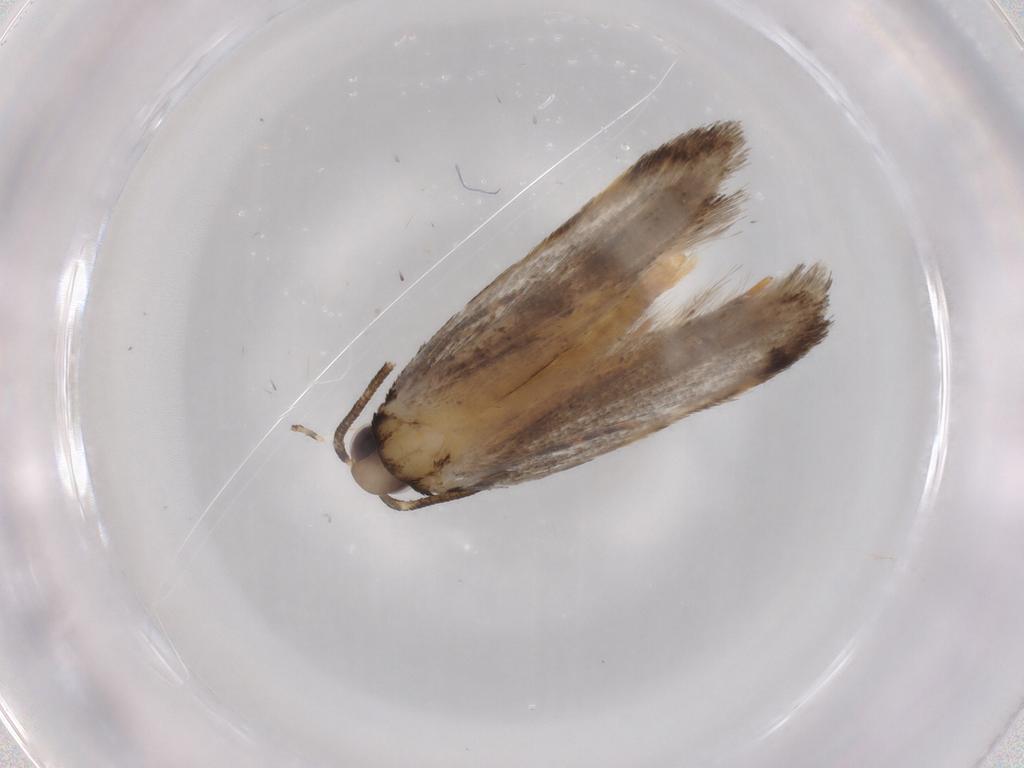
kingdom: Animalia
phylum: Arthropoda
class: Insecta
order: Lepidoptera
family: Autostichidae
